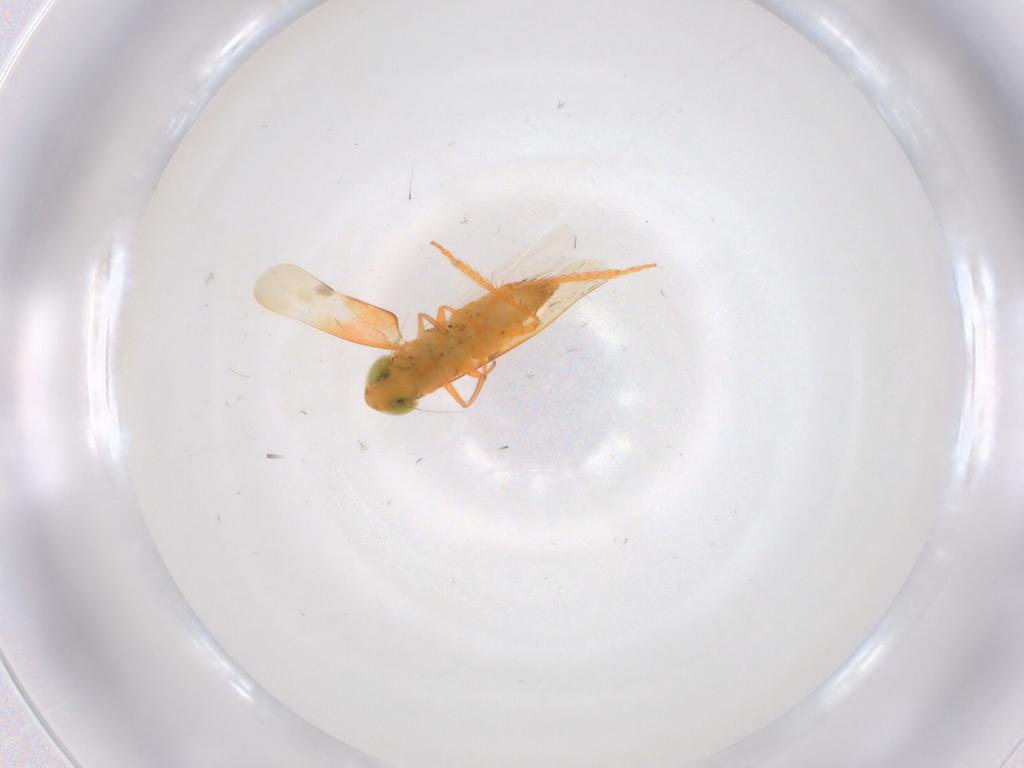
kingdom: Animalia
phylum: Arthropoda
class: Insecta
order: Hemiptera
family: Cicadellidae
